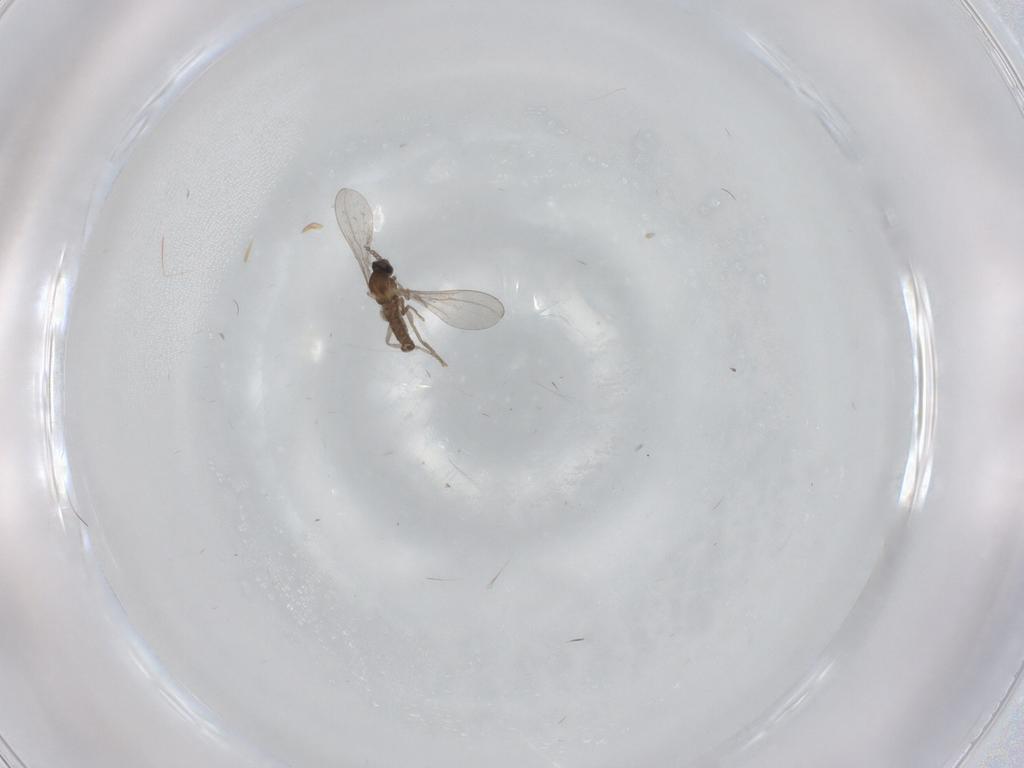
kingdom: Animalia
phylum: Arthropoda
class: Insecta
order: Diptera
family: Cecidomyiidae
